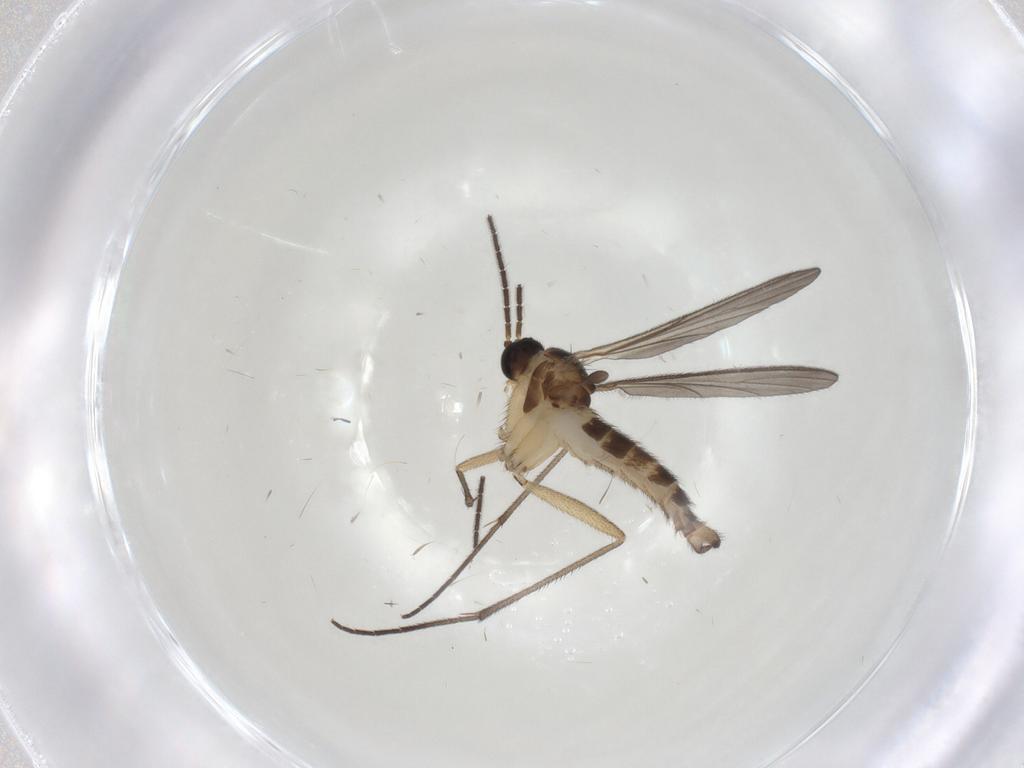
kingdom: Animalia
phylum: Arthropoda
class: Insecta
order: Diptera
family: Sciaridae
